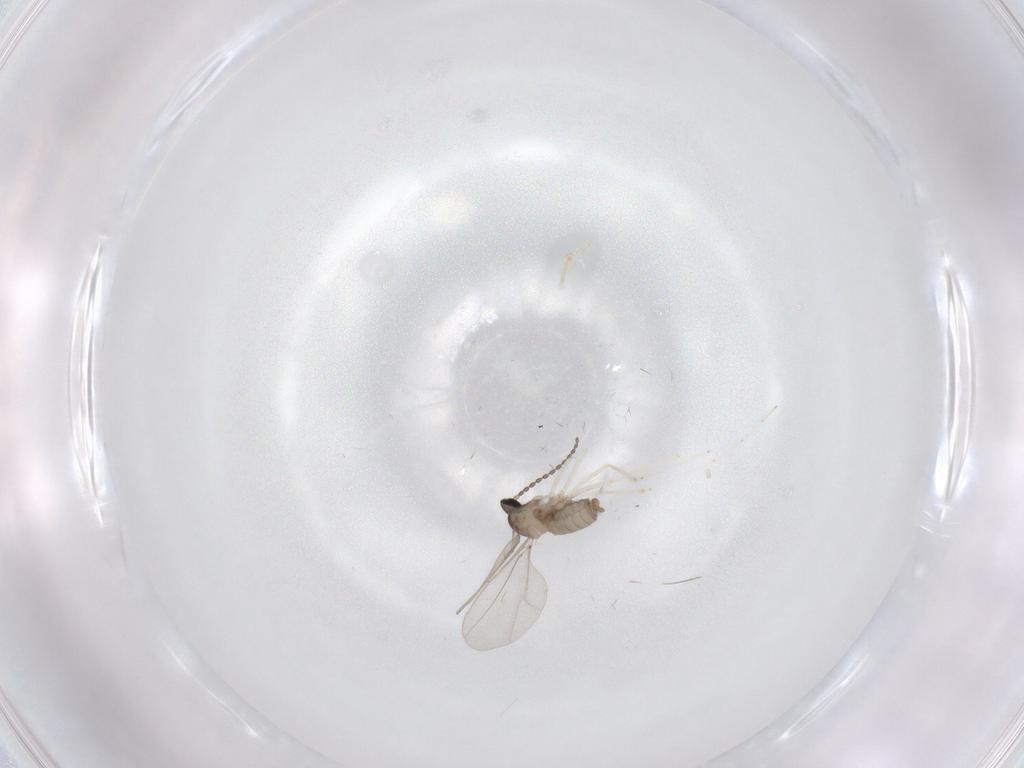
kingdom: Animalia
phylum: Arthropoda
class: Insecta
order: Diptera
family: Cecidomyiidae
